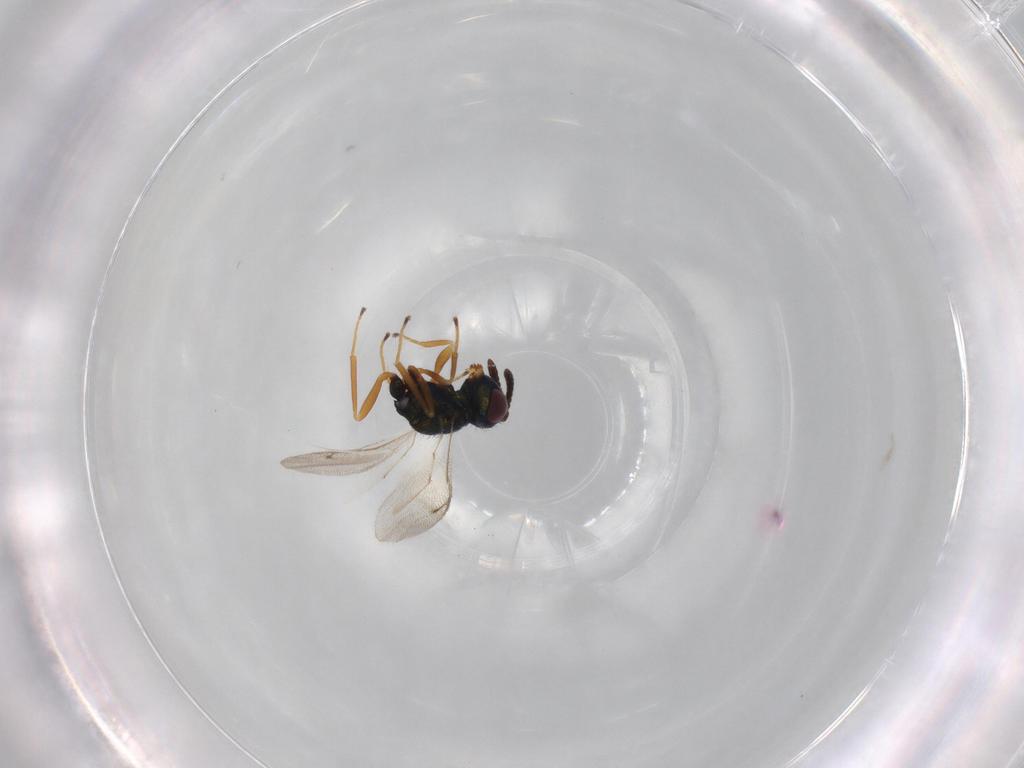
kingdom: Animalia
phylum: Arthropoda
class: Insecta
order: Hymenoptera
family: Pteromalidae
